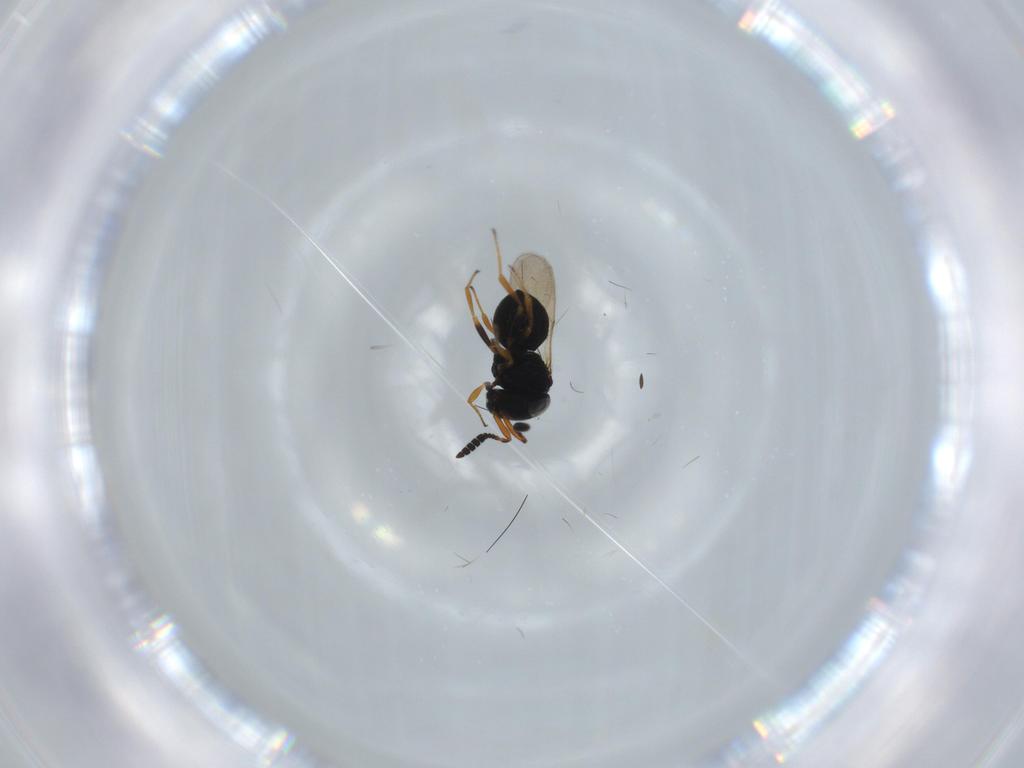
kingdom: Animalia
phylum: Arthropoda
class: Insecta
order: Hymenoptera
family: Scelionidae
